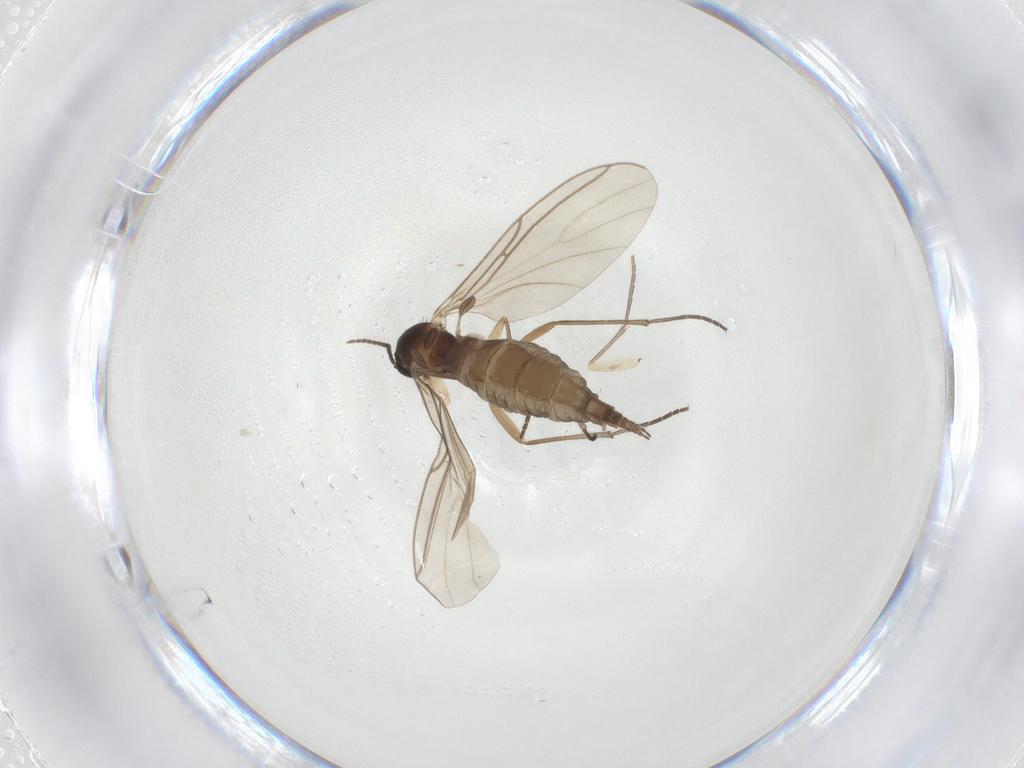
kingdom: Animalia
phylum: Arthropoda
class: Insecta
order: Diptera
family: Sciaridae
